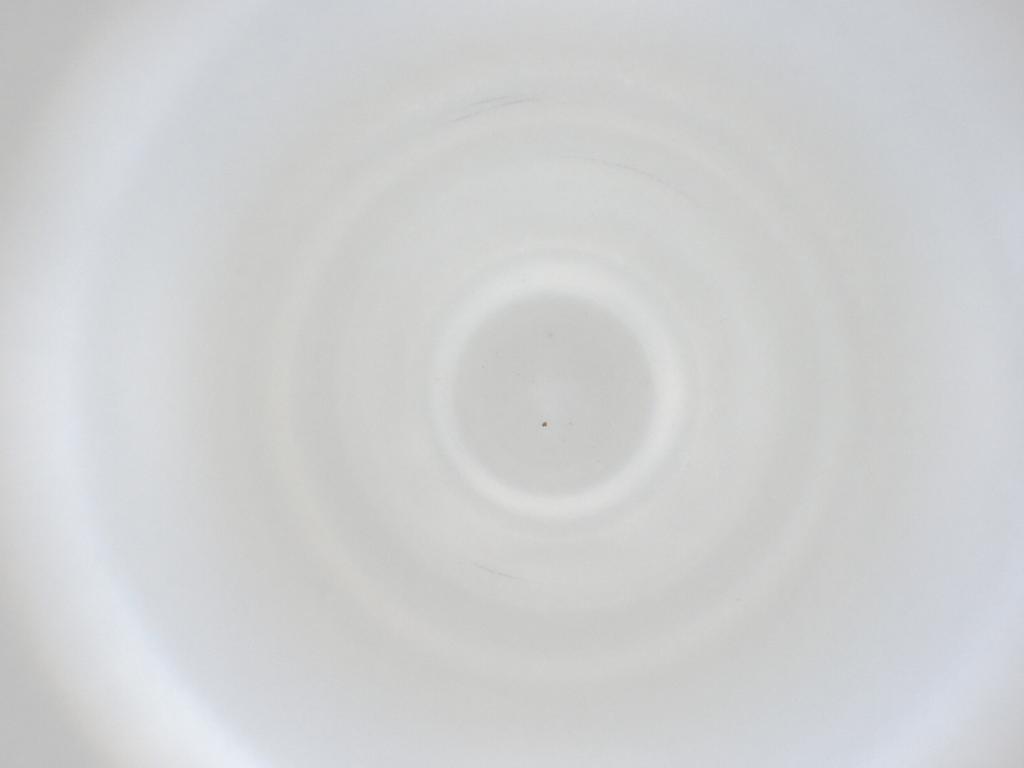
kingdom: Animalia
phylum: Arthropoda
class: Insecta
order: Diptera
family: Cecidomyiidae
